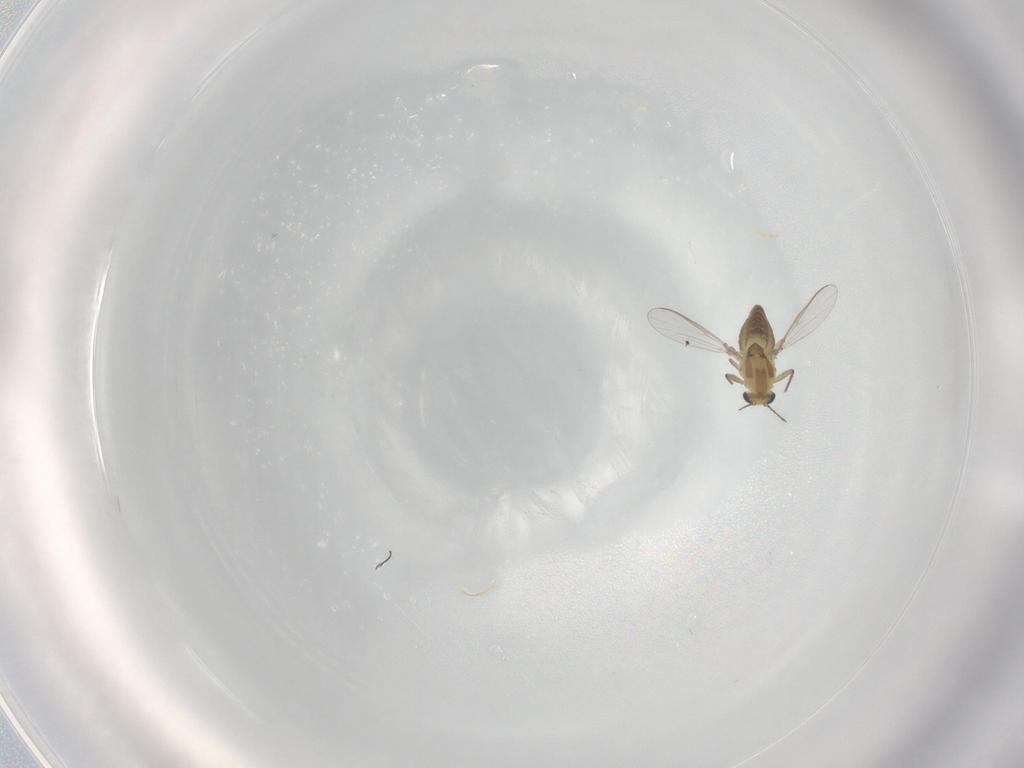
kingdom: Animalia
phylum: Arthropoda
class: Insecta
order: Diptera
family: Chironomidae
